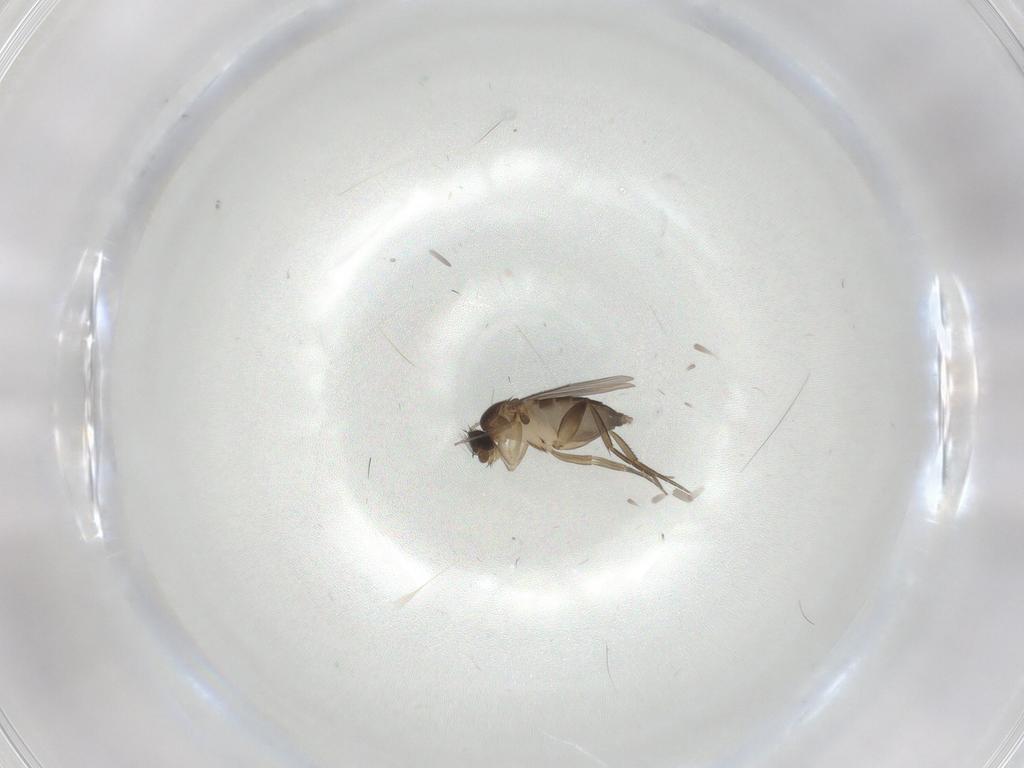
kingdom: Animalia
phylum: Arthropoda
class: Insecta
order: Diptera
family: Phoridae
